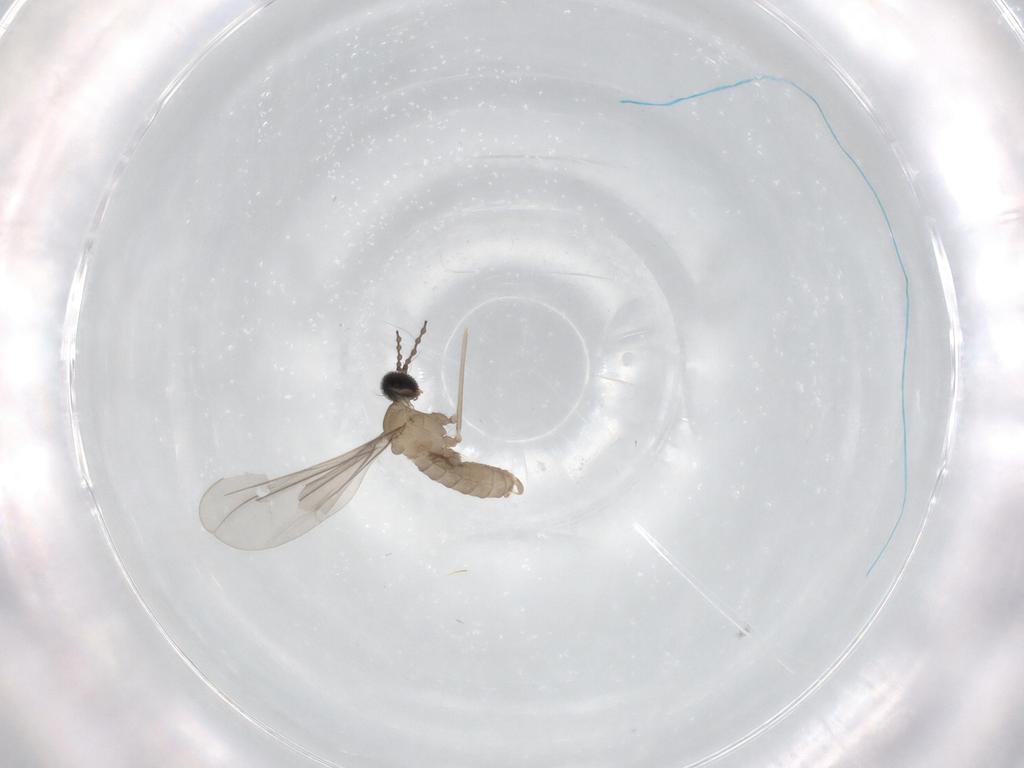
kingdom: Animalia
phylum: Arthropoda
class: Insecta
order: Diptera
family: Cecidomyiidae
